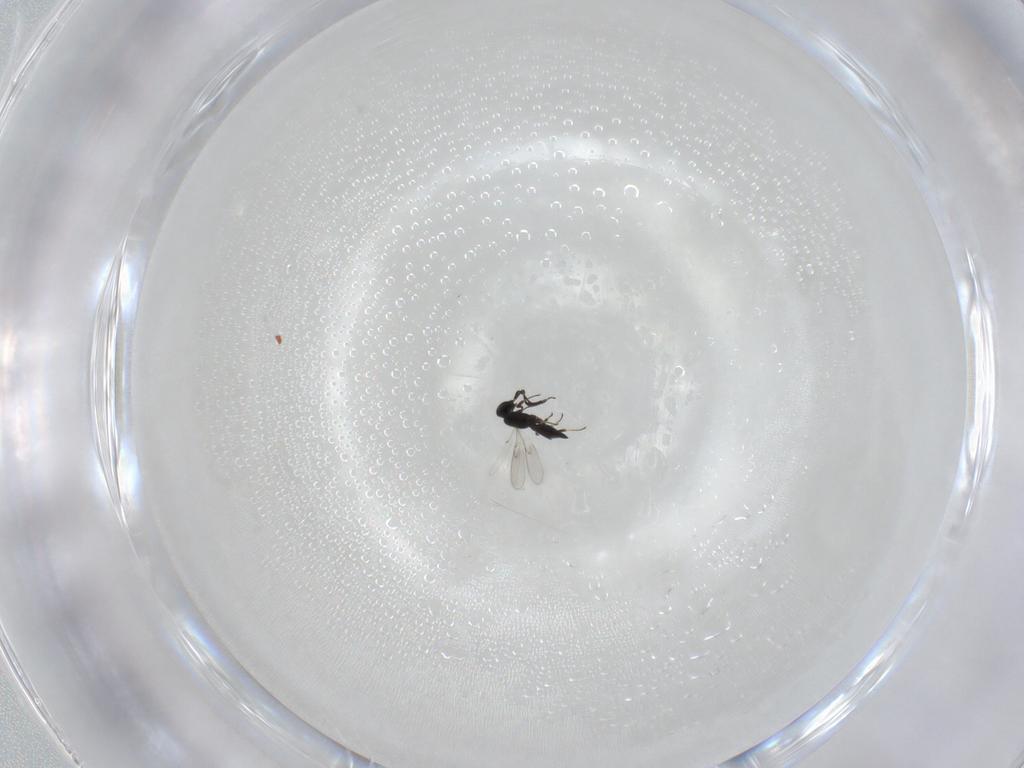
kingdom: Animalia
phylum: Arthropoda
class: Insecta
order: Hymenoptera
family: Scelionidae
